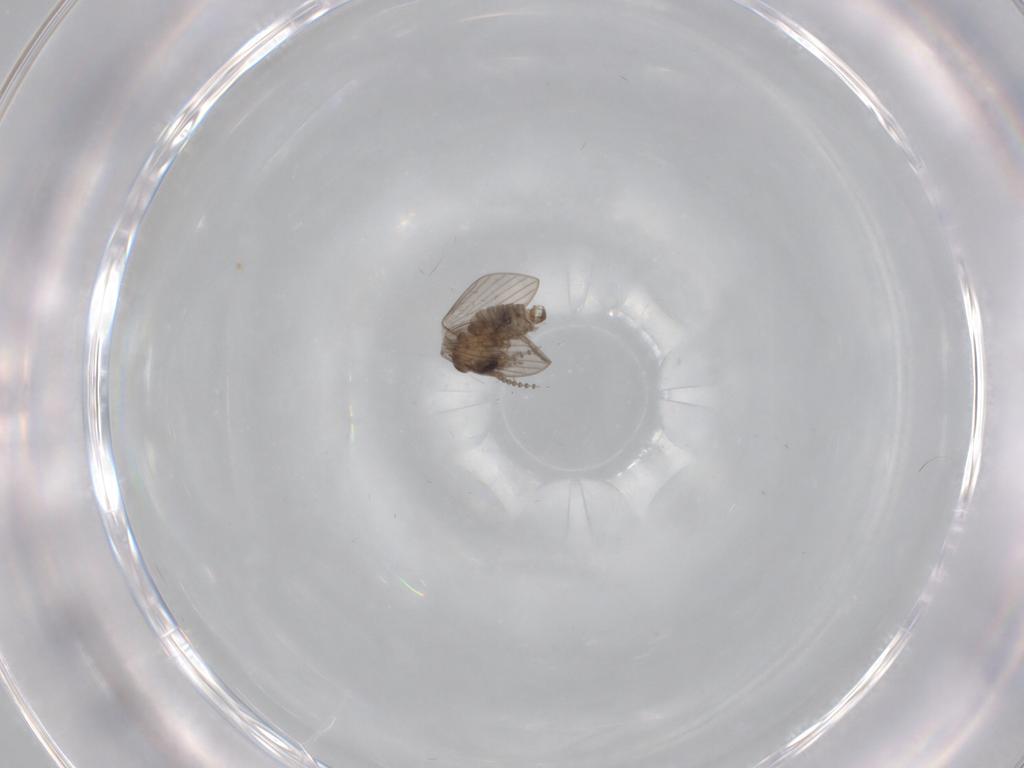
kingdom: Animalia
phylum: Arthropoda
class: Insecta
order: Diptera
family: Psychodidae
